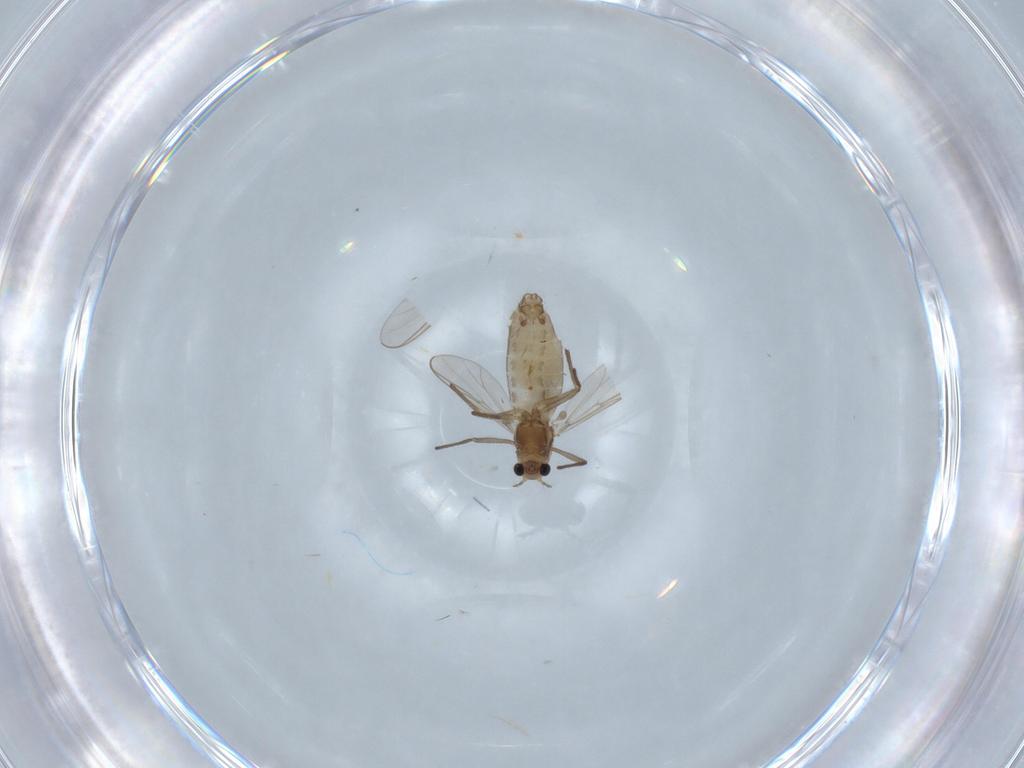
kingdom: Animalia
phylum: Arthropoda
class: Insecta
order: Diptera
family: Chironomidae
